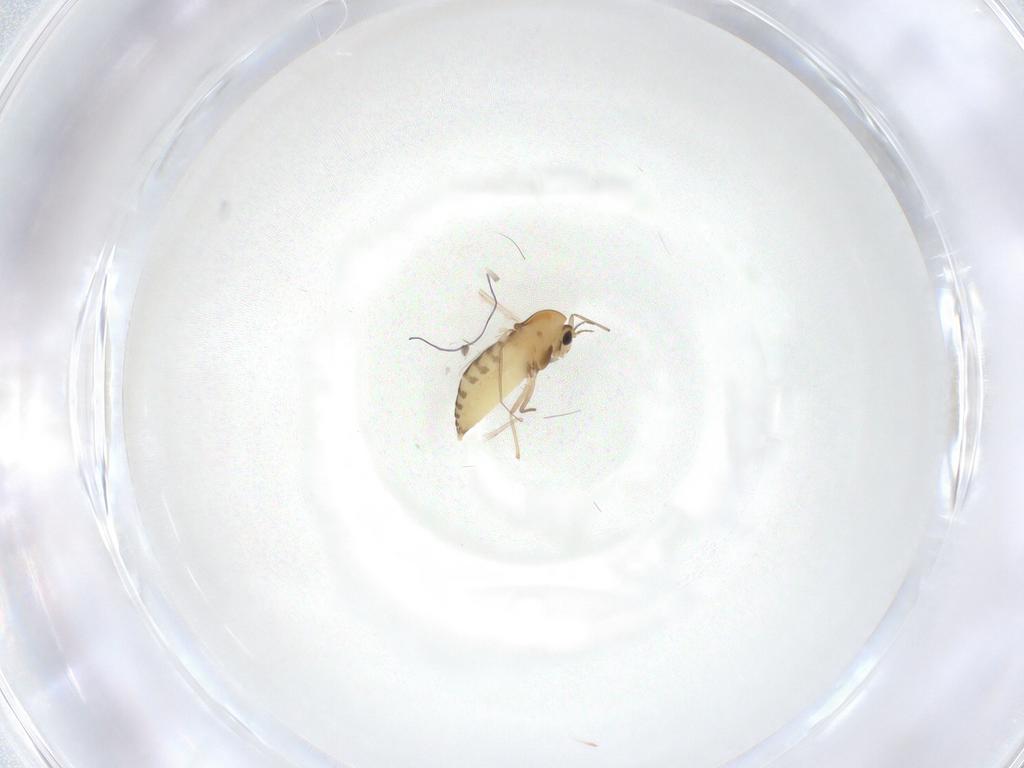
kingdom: Animalia
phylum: Arthropoda
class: Insecta
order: Diptera
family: Chironomidae
